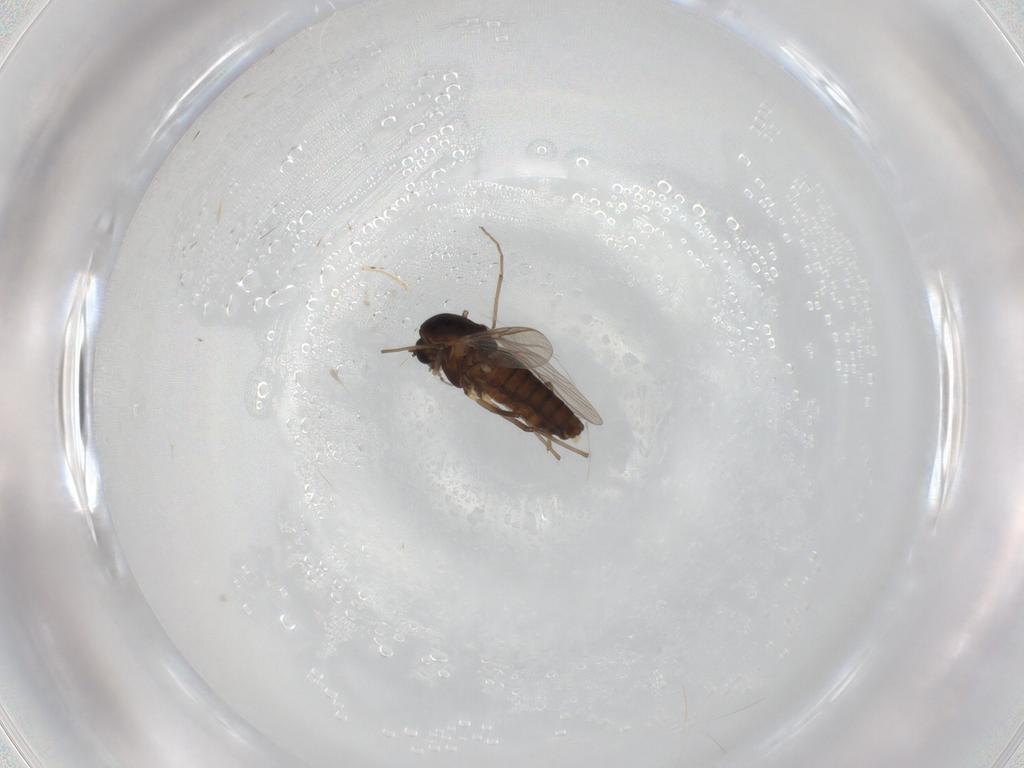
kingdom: Animalia
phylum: Arthropoda
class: Insecta
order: Diptera
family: Chironomidae
